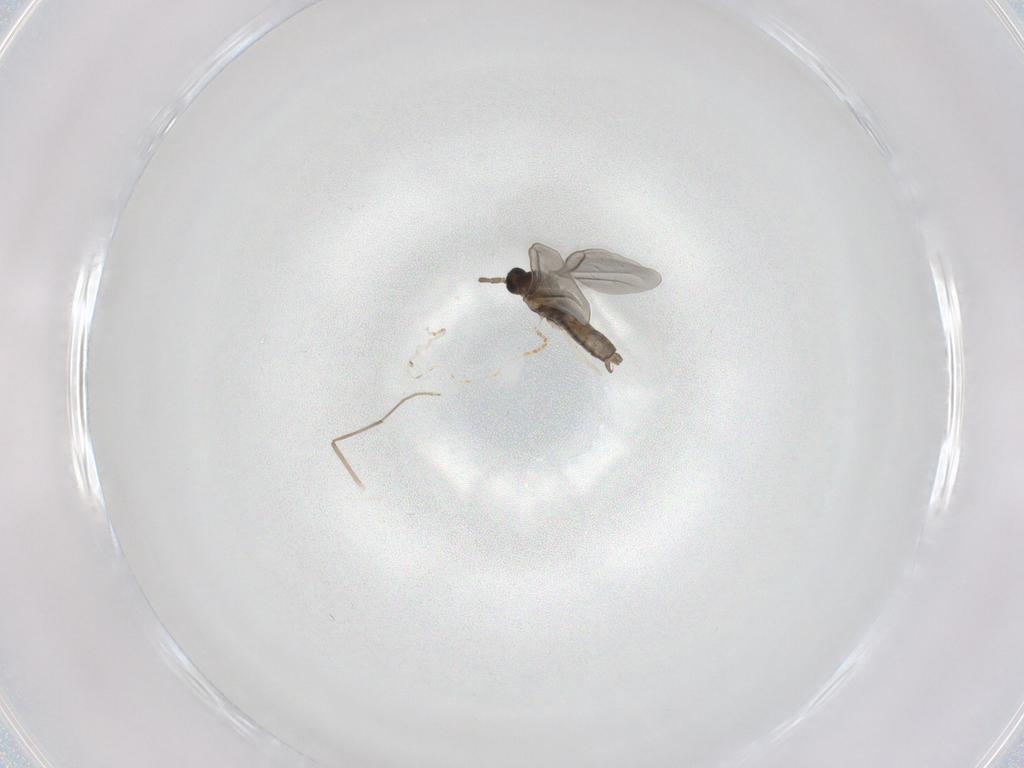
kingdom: Animalia
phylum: Arthropoda
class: Insecta
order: Diptera
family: Cecidomyiidae
